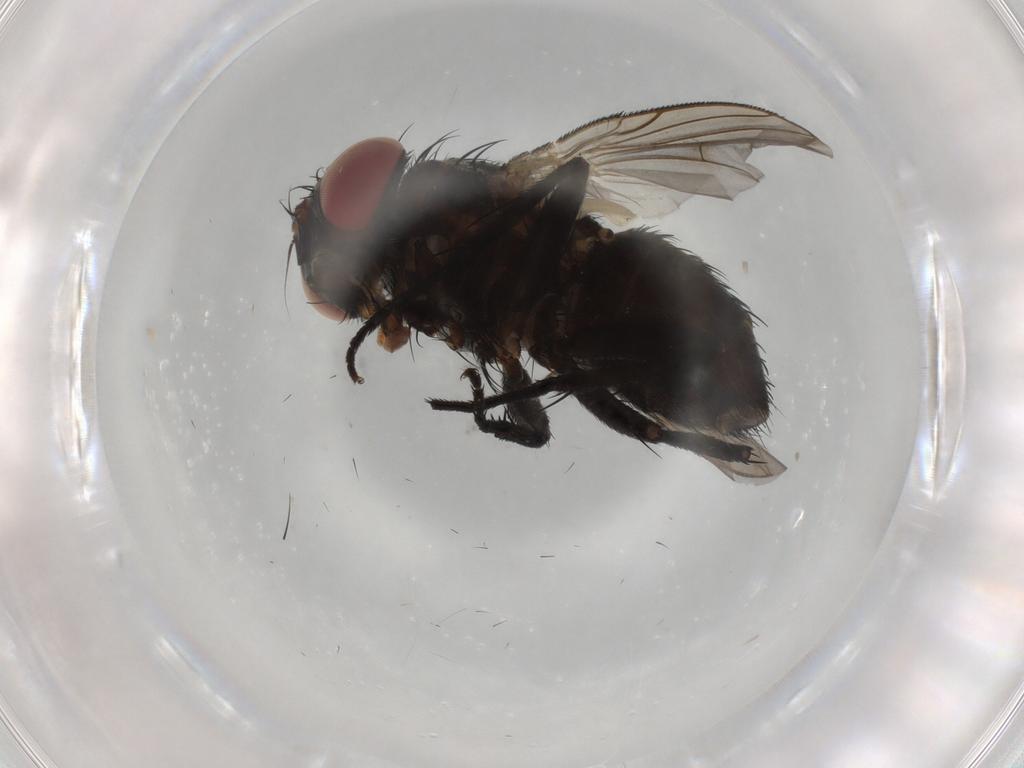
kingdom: Animalia
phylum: Arthropoda
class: Insecta
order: Diptera
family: Tachinidae
